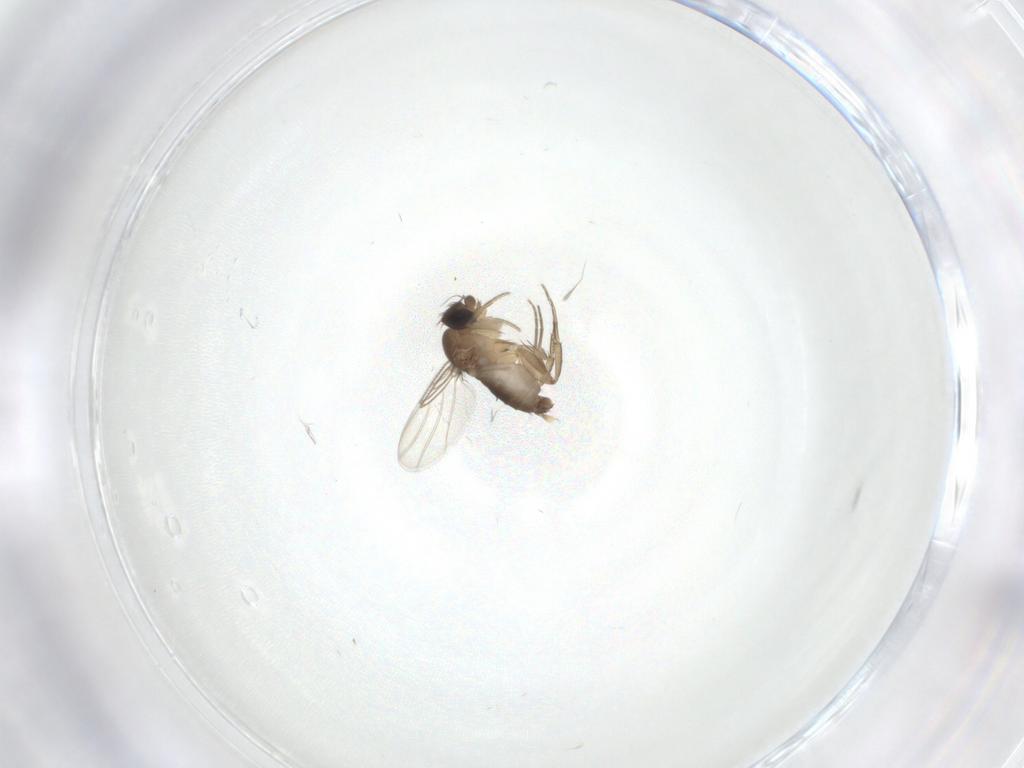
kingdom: Animalia
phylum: Arthropoda
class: Insecta
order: Diptera
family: Phoridae
